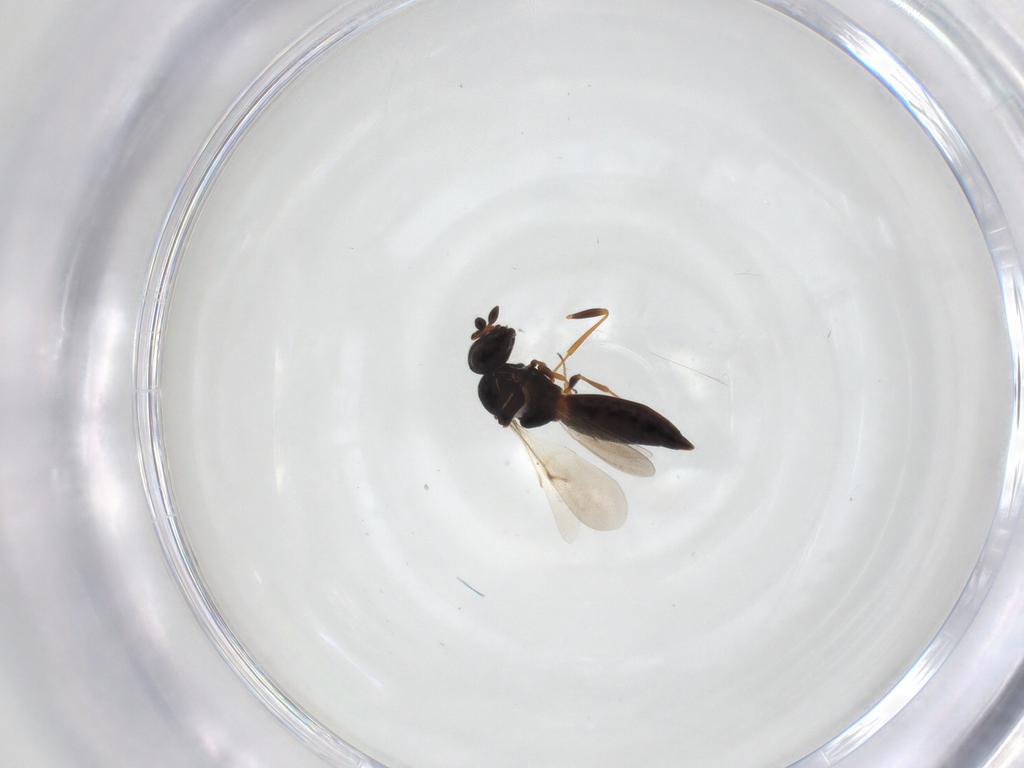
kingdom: Animalia
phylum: Arthropoda
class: Insecta
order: Hymenoptera
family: Scelionidae
